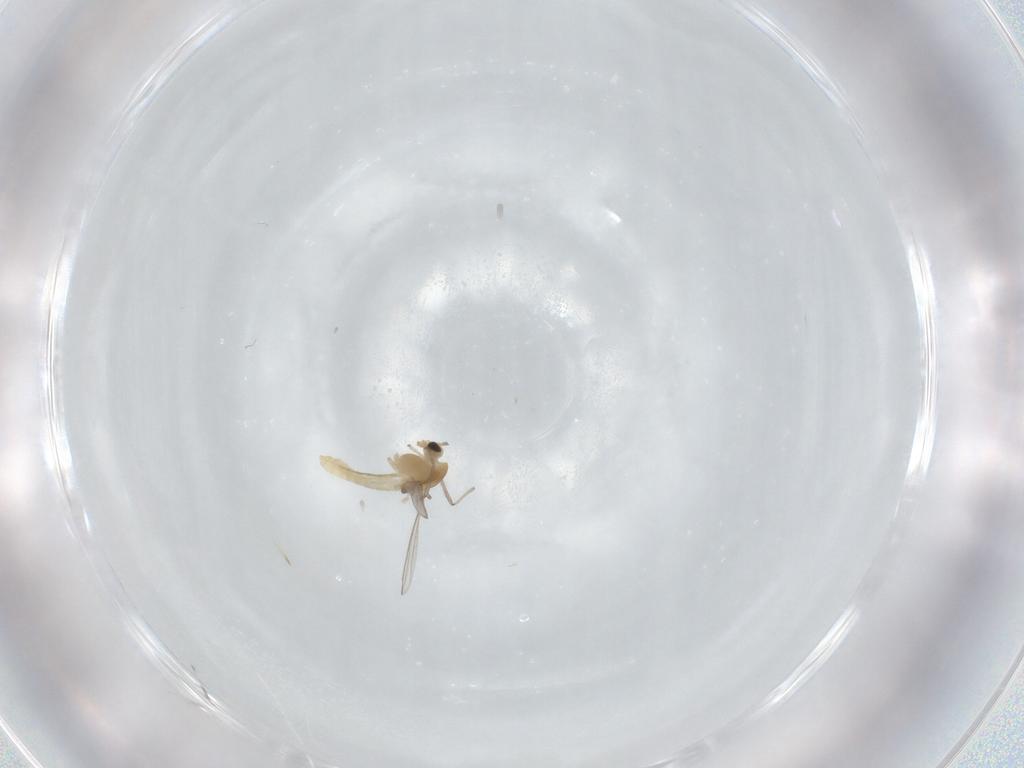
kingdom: Animalia
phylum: Arthropoda
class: Insecta
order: Diptera
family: Chironomidae
